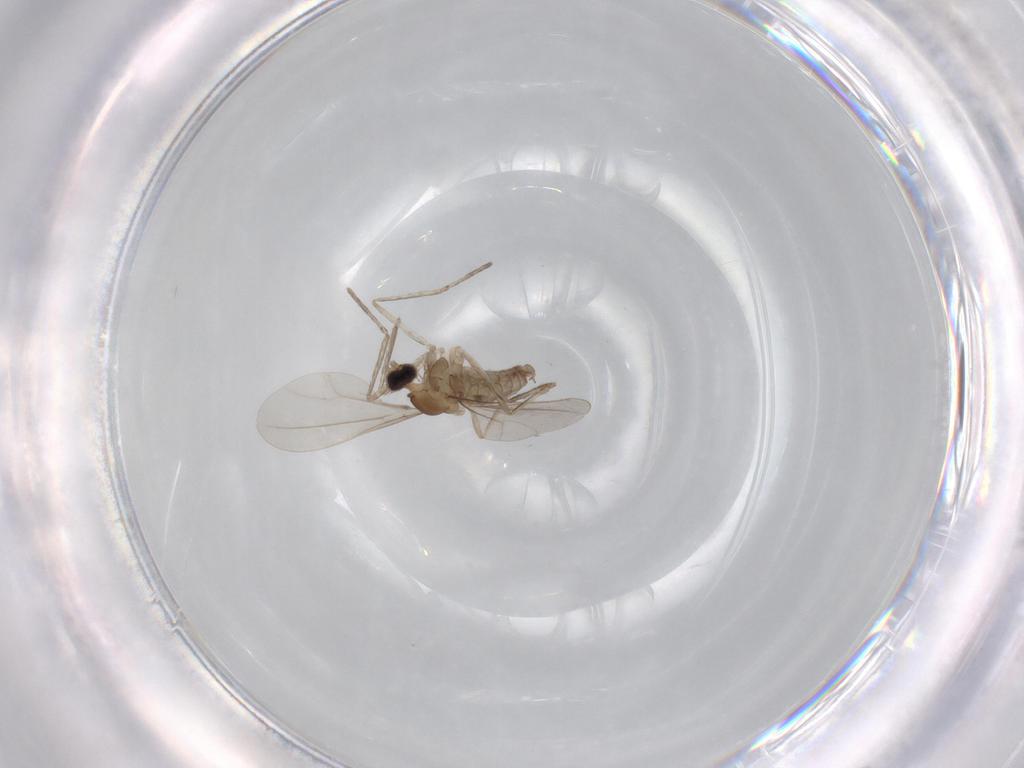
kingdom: Animalia
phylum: Arthropoda
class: Insecta
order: Diptera
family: Cecidomyiidae
